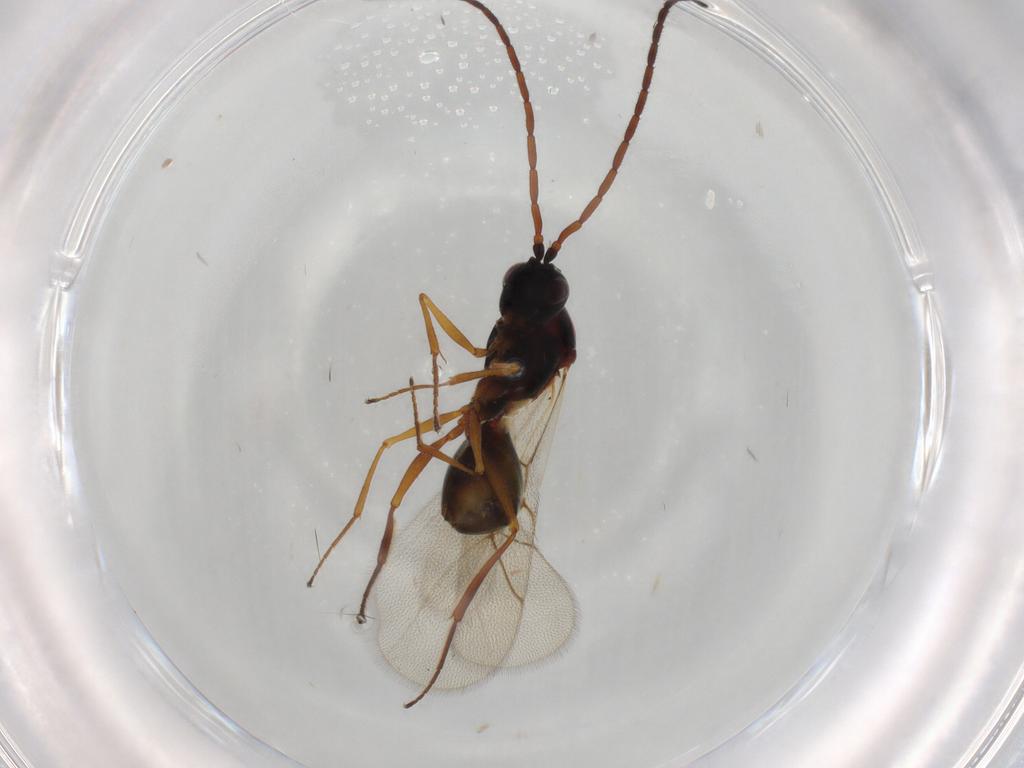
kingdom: Animalia
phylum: Arthropoda
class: Insecta
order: Hymenoptera
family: Figitidae
